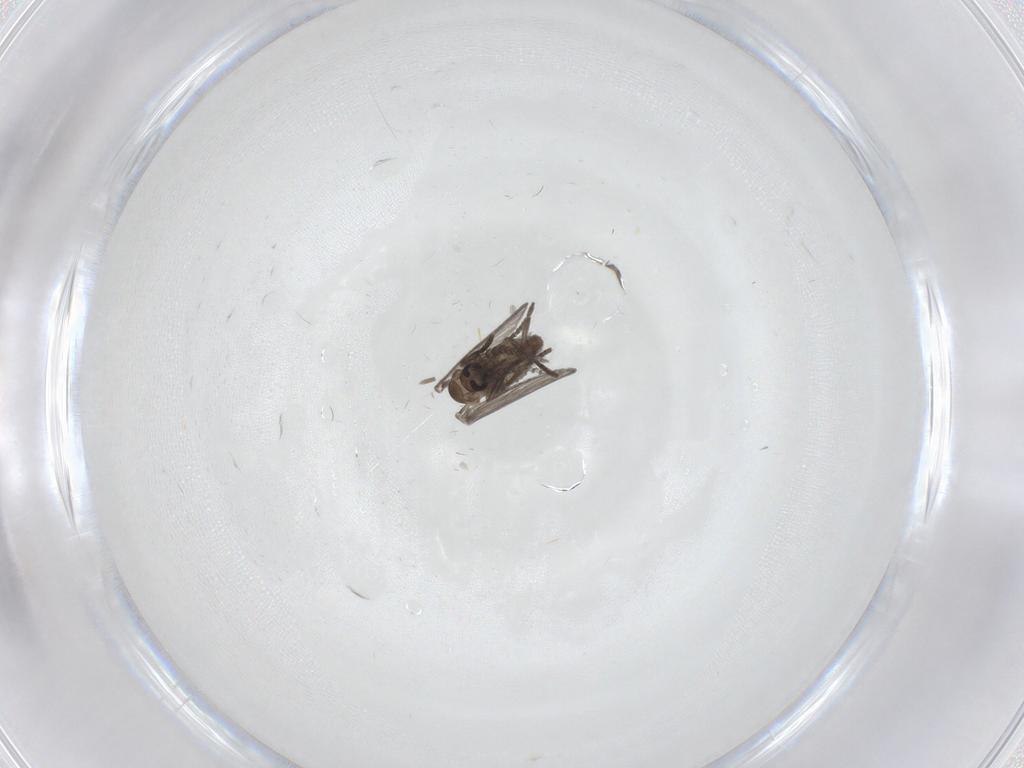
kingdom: Animalia
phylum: Arthropoda
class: Insecta
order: Diptera
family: Psychodidae
